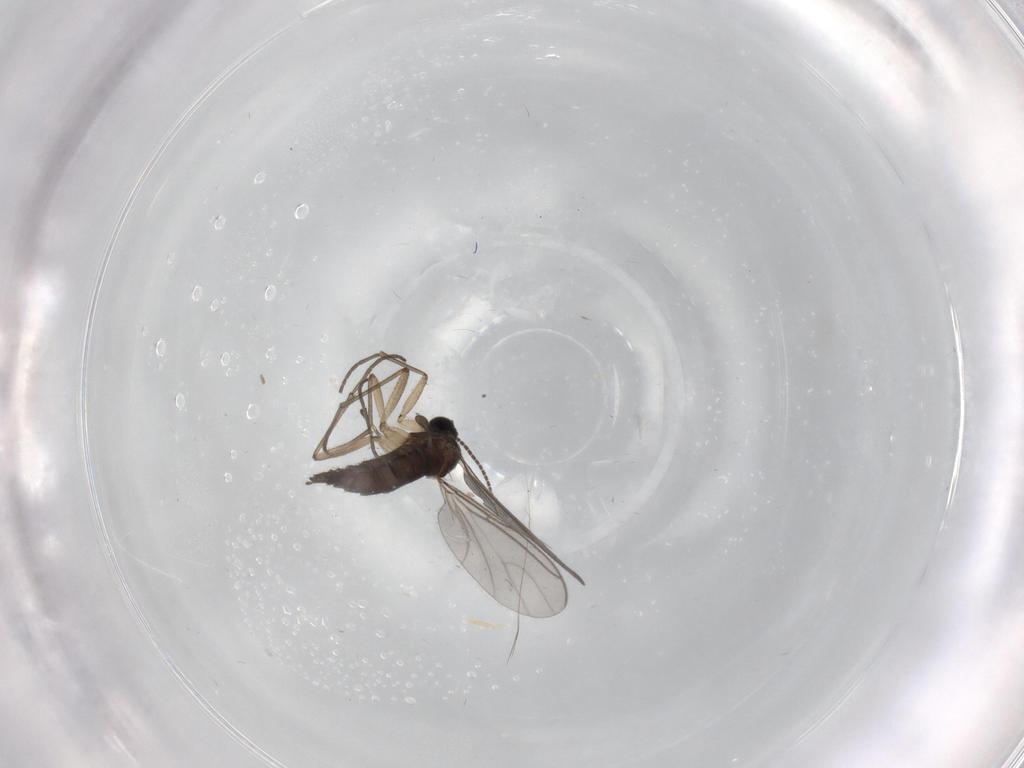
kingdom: Animalia
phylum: Arthropoda
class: Insecta
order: Diptera
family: Sciaridae
